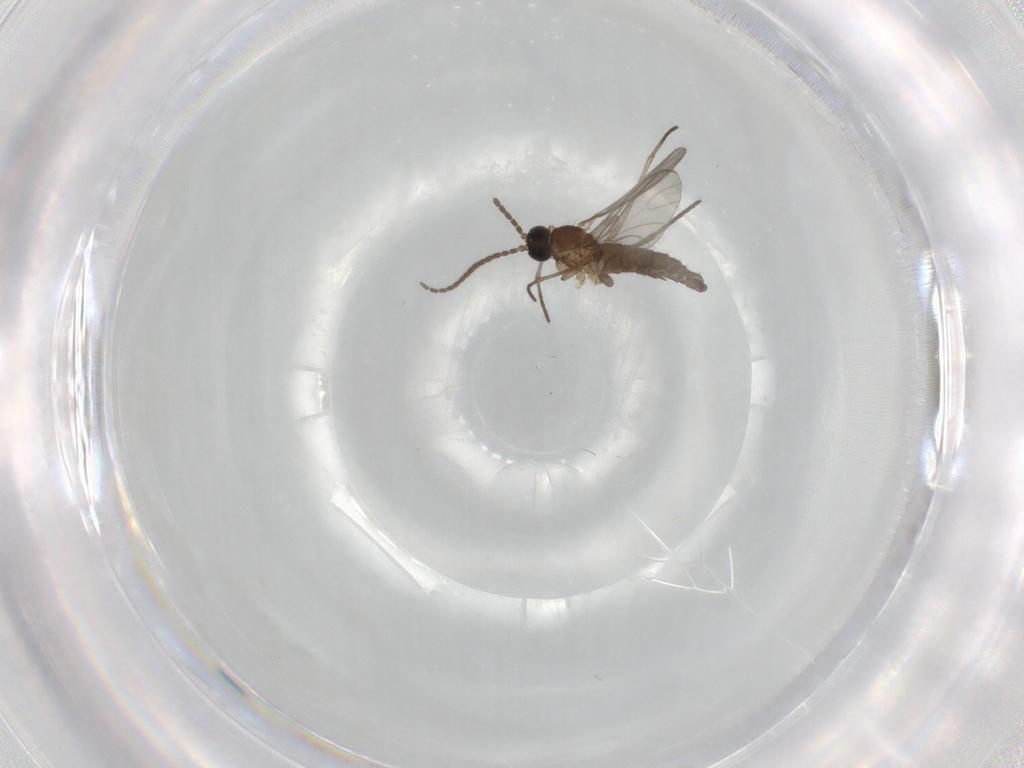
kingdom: Animalia
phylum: Arthropoda
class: Insecta
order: Diptera
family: Sciaridae
